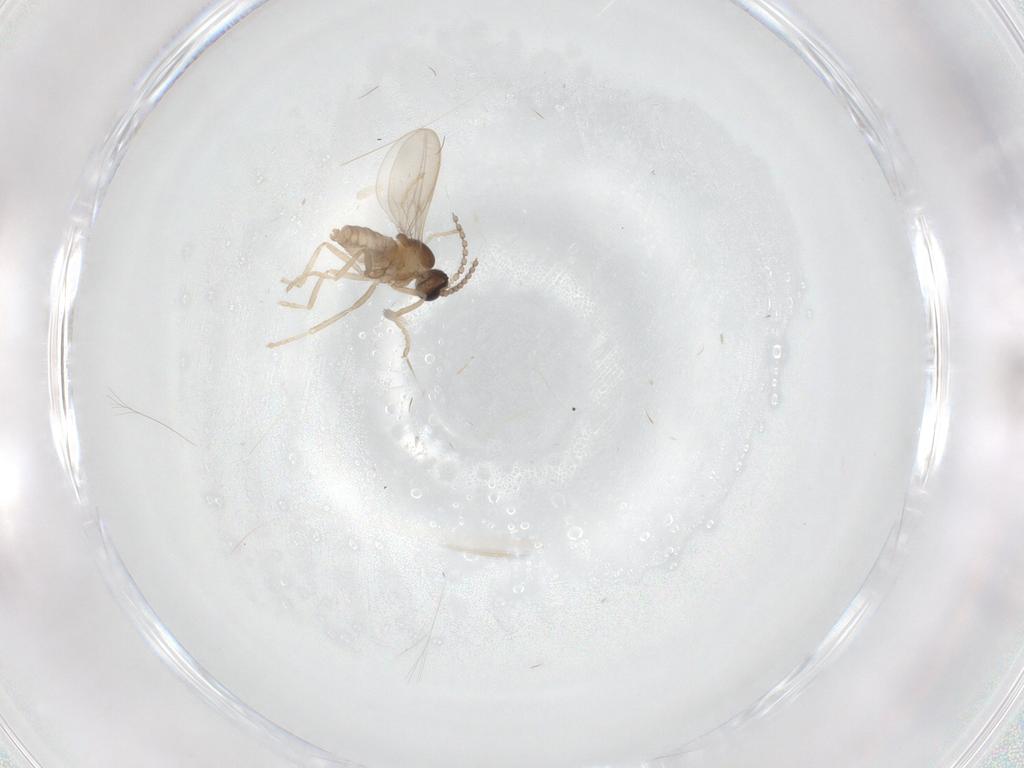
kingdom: Animalia
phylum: Arthropoda
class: Insecta
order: Diptera
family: Cecidomyiidae
